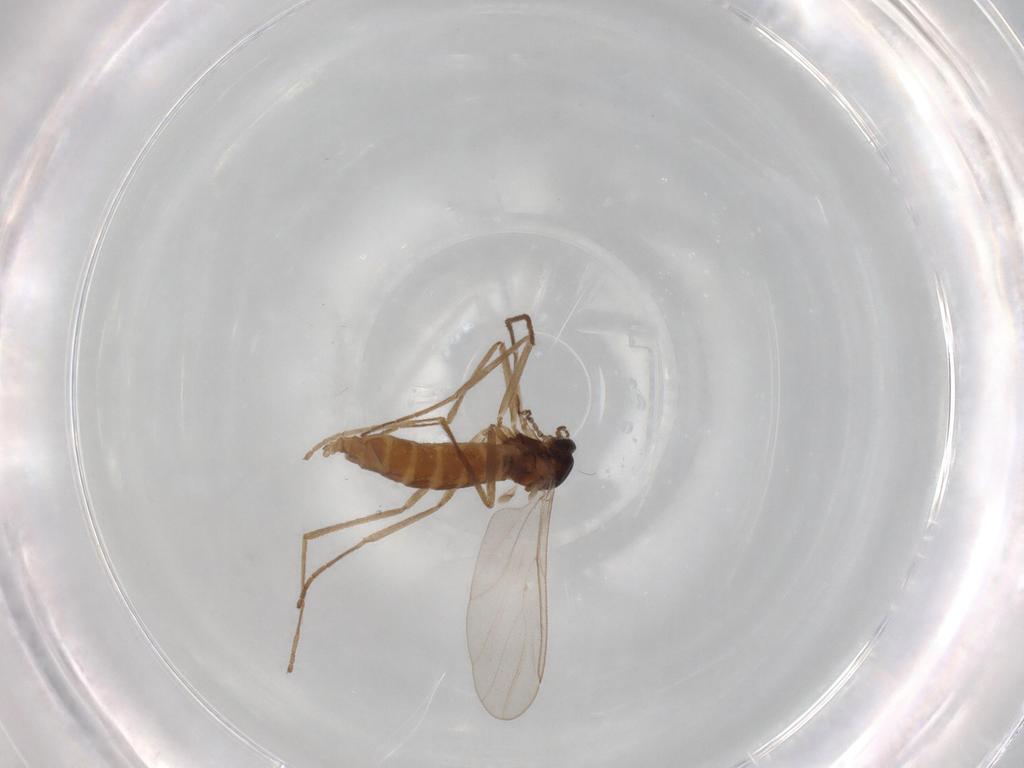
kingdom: Animalia
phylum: Arthropoda
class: Insecta
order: Diptera
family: Cecidomyiidae
